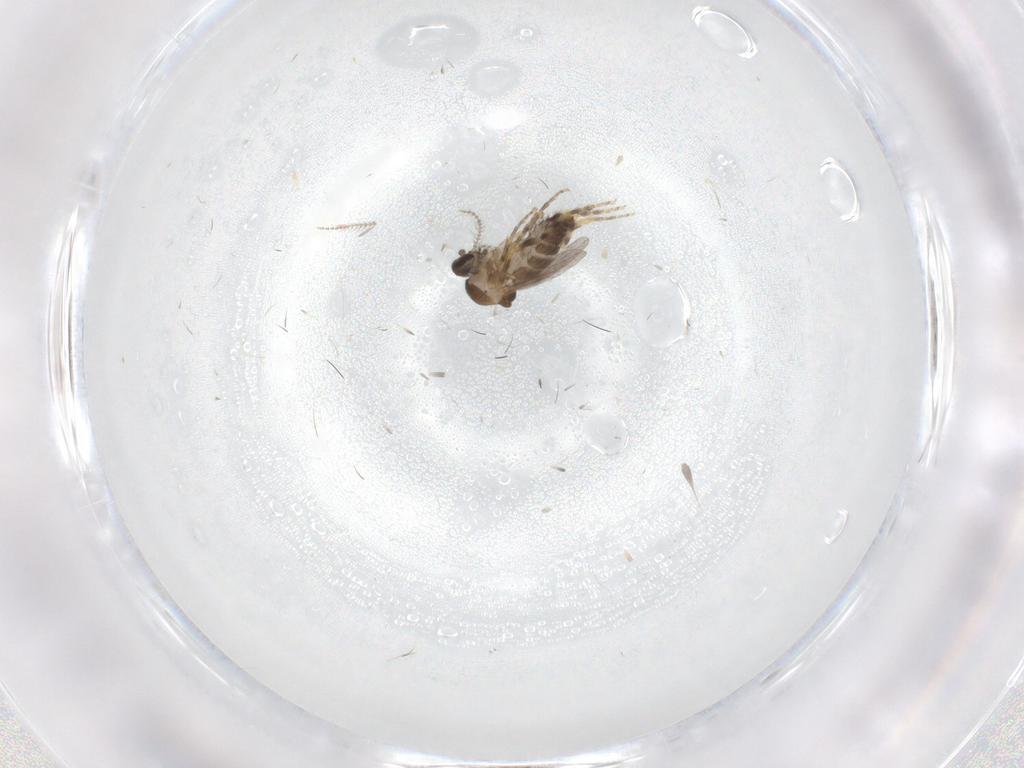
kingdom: Animalia
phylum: Arthropoda
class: Insecta
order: Diptera
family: Ceratopogonidae
